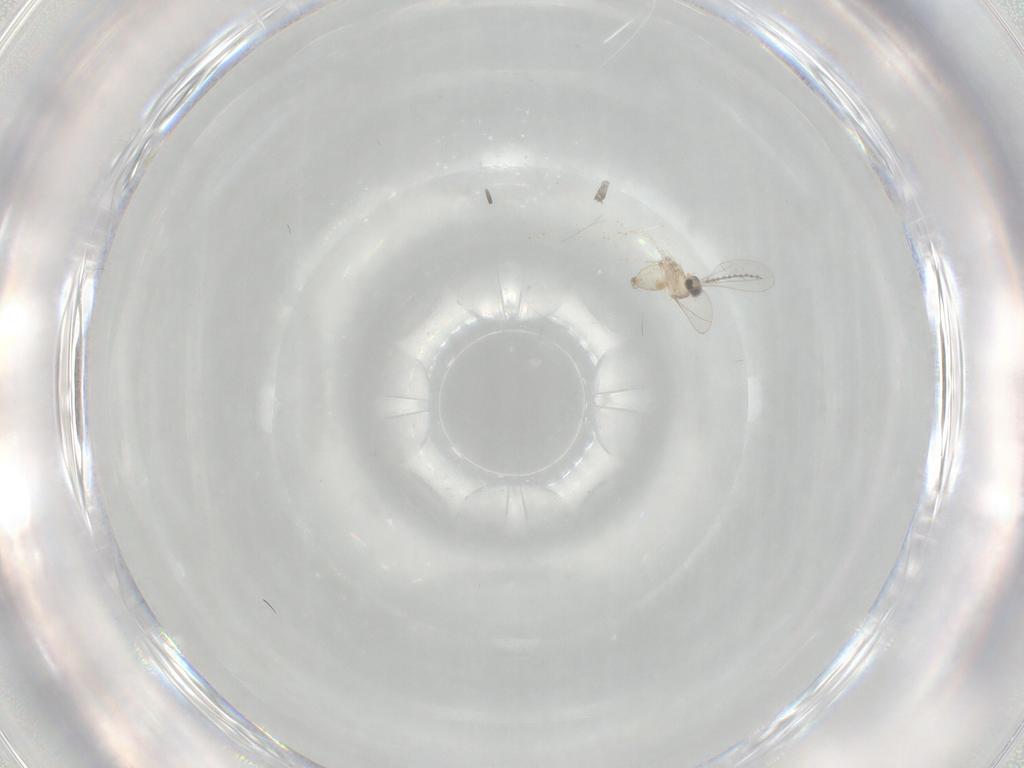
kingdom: Animalia
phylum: Arthropoda
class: Insecta
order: Diptera
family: Cecidomyiidae
